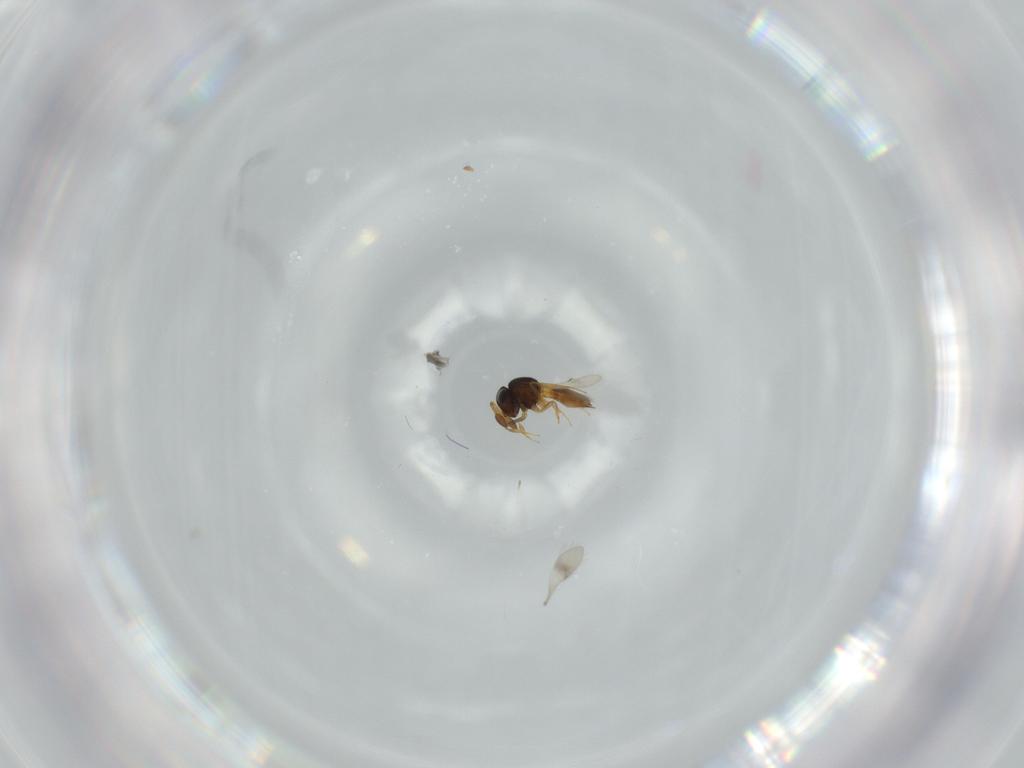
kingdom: Animalia
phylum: Arthropoda
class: Insecta
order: Hymenoptera
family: Scelionidae
